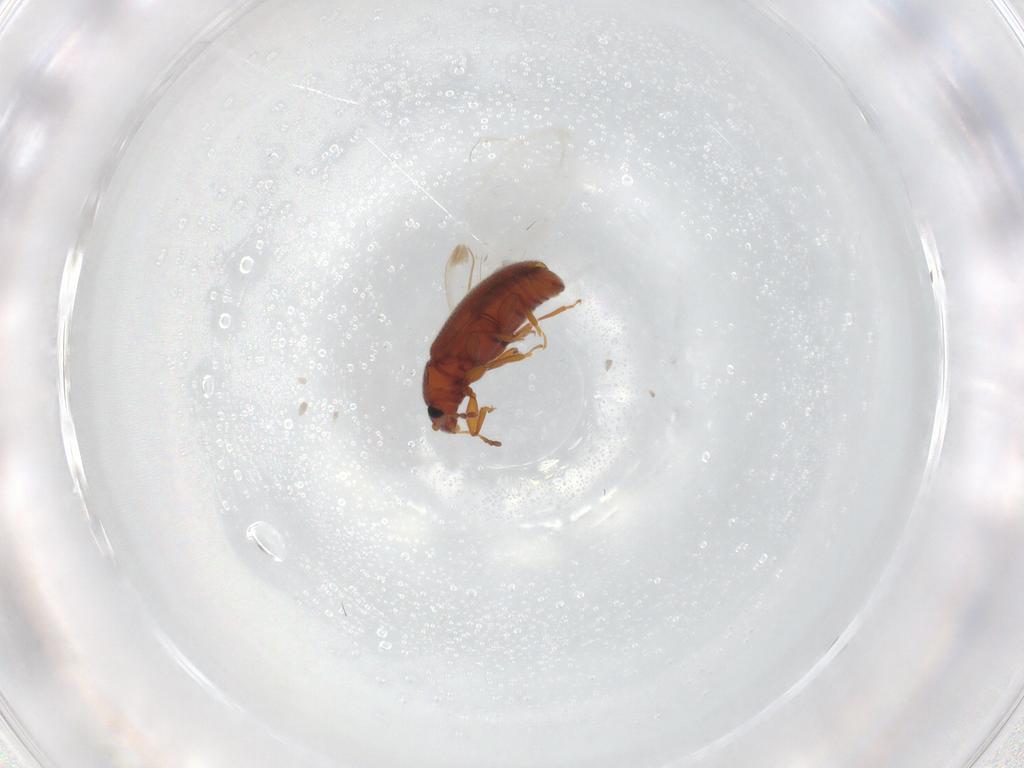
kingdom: Animalia
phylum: Arthropoda
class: Insecta
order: Coleoptera
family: Latridiidae
